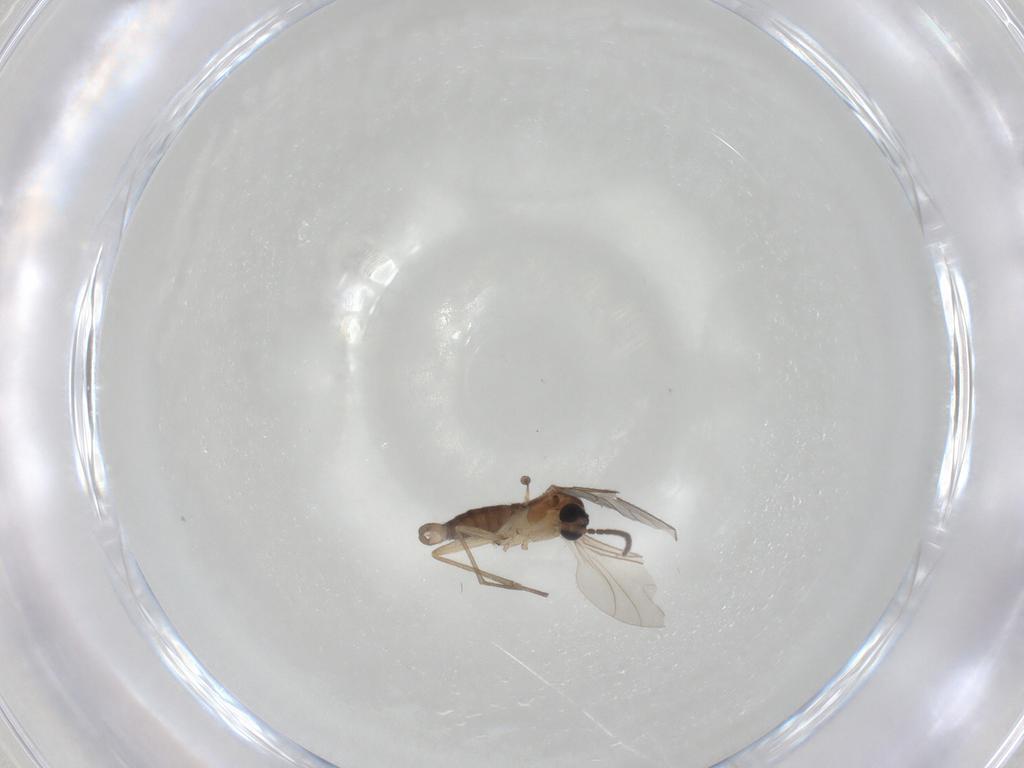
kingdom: Animalia
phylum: Arthropoda
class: Insecta
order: Diptera
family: Sciaridae
